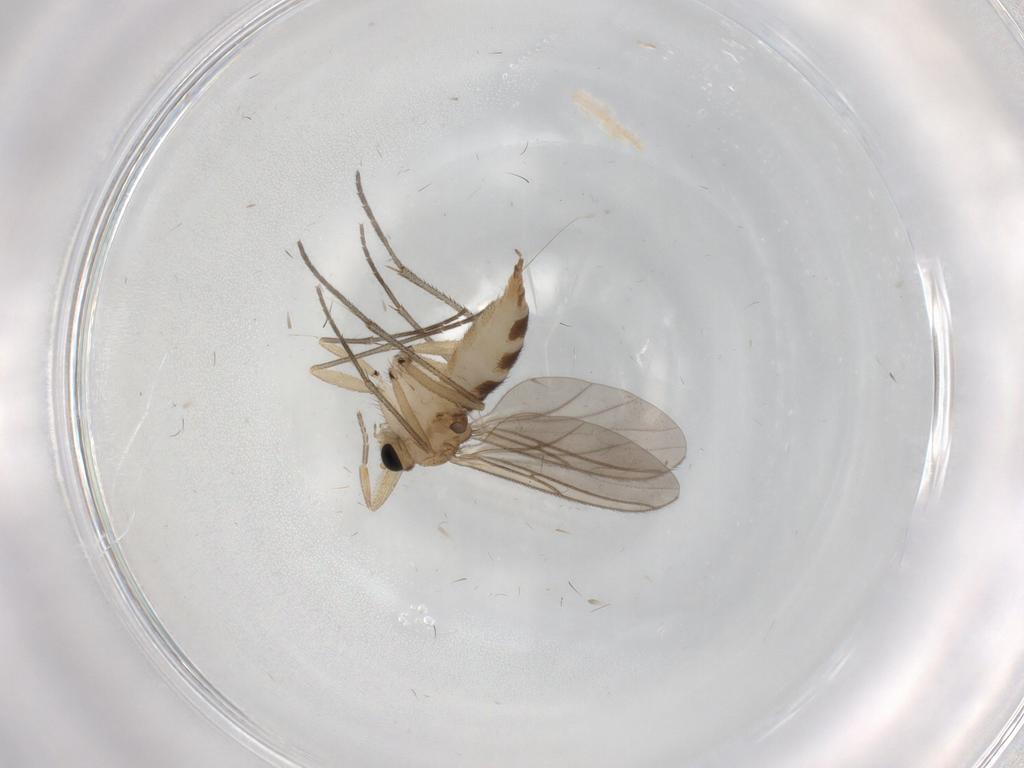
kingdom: Animalia
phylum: Arthropoda
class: Insecta
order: Diptera
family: Sciaridae
